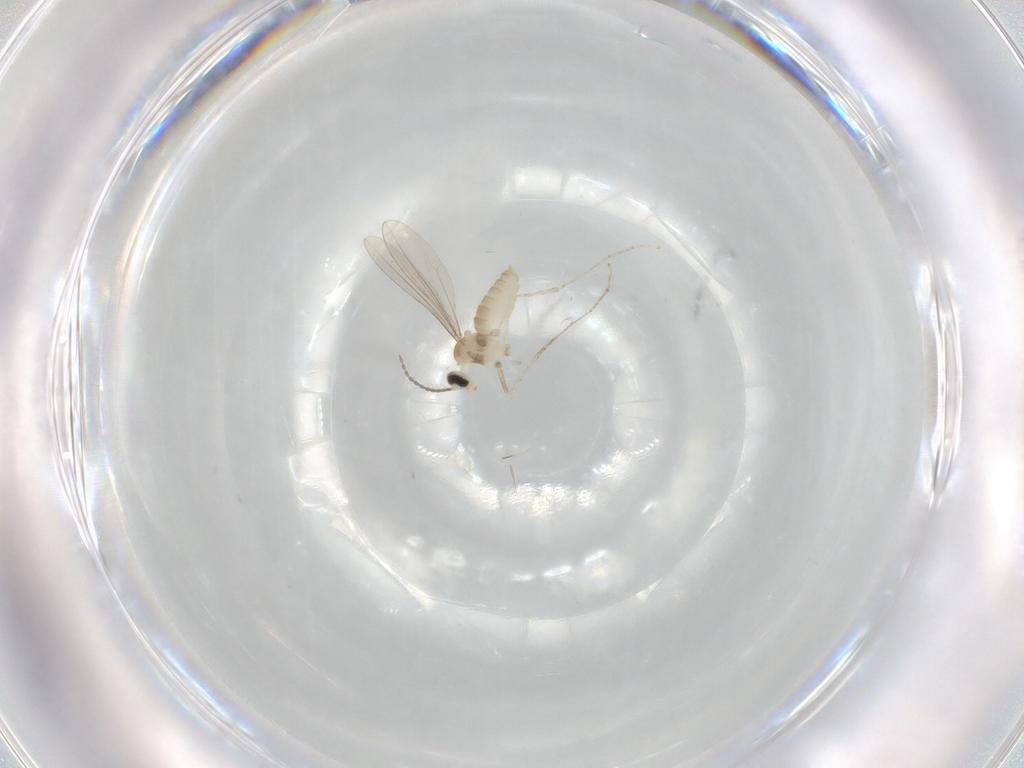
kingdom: Animalia
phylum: Arthropoda
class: Insecta
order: Diptera
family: Cecidomyiidae
